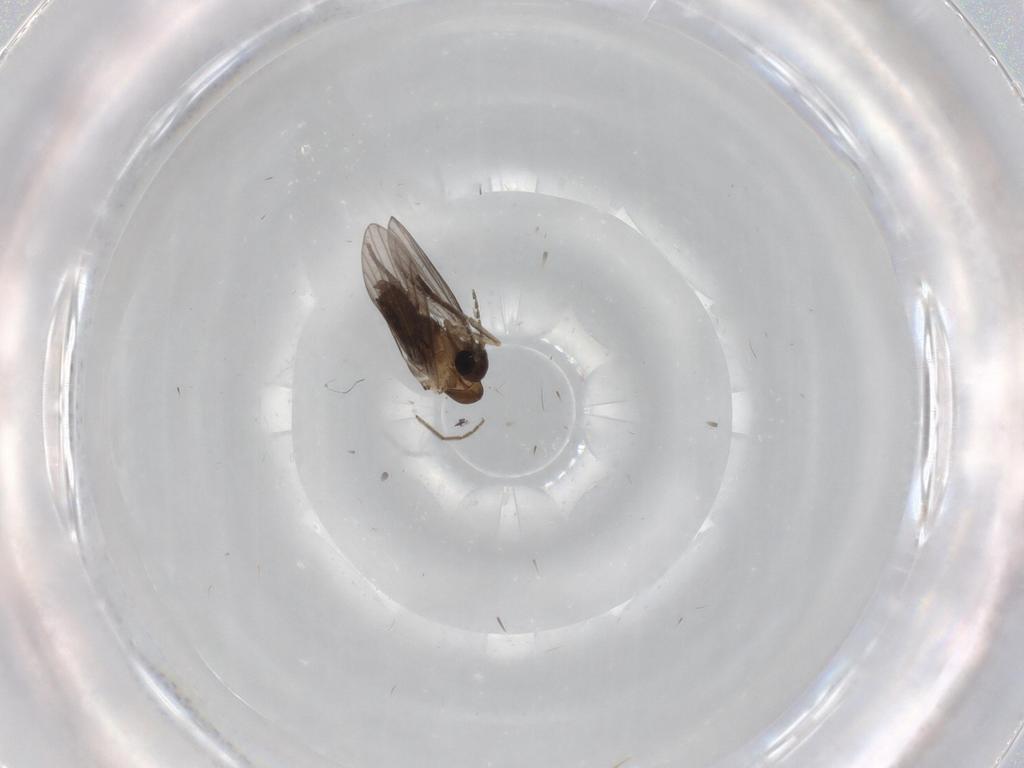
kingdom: Animalia
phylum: Arthropoda
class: Insecta
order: Diptera
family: Psychodidae
